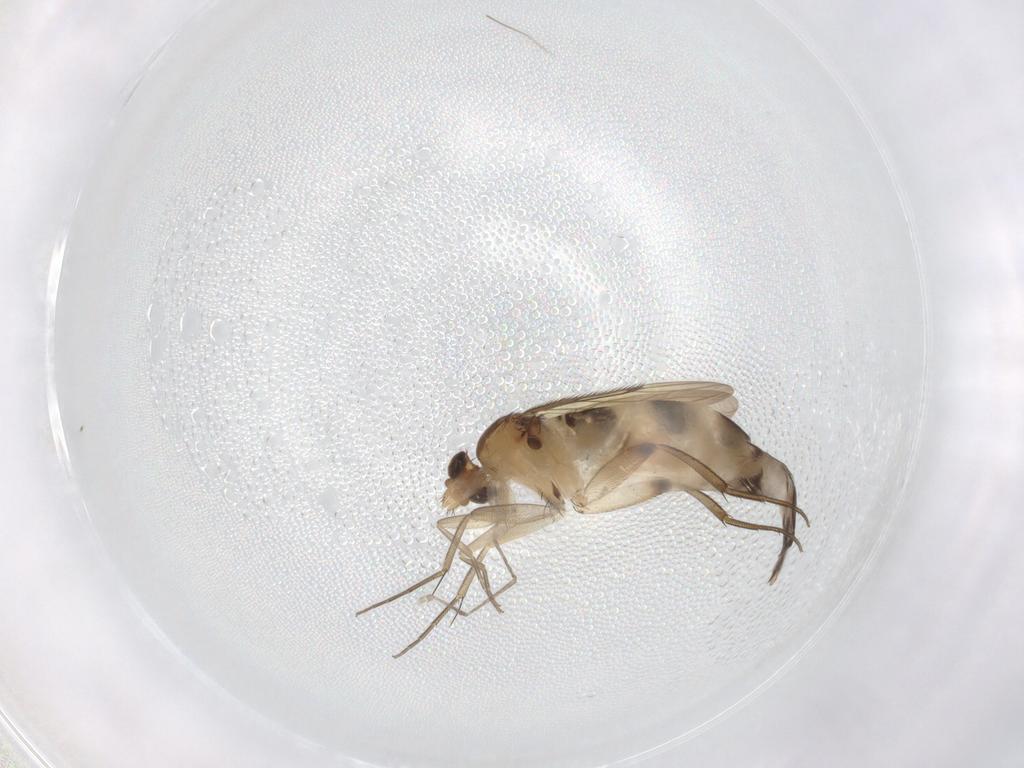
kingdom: Animalia
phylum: Arthropoda
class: Insecta
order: Diptera
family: Phoridae
